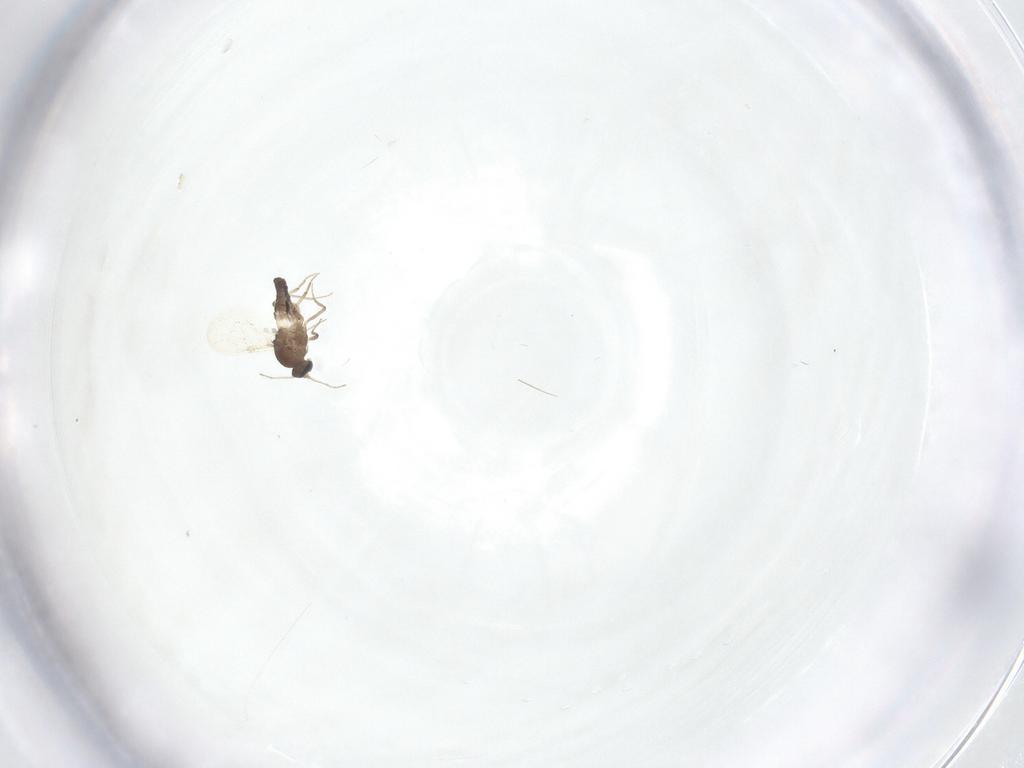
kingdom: Animalia
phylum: Arthropoda
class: Insecta
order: Diptera
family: Ceratopogonidae
